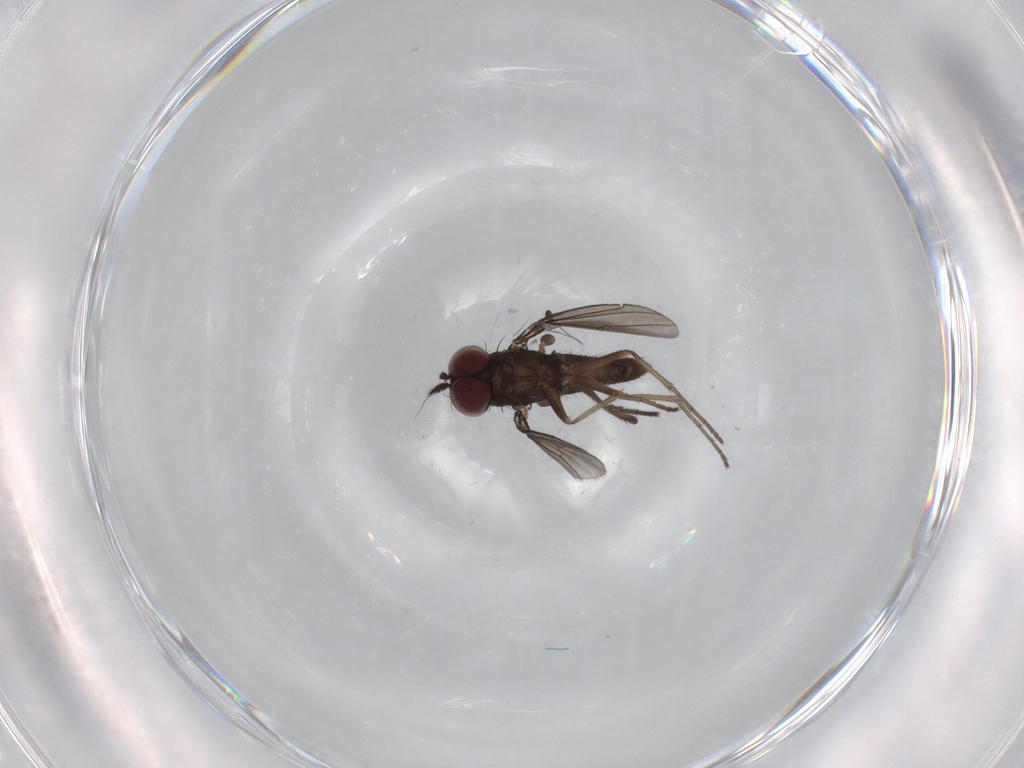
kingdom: Animalia
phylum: Arthropoda
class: Insecta
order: Diptera
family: Dolichopodidae
